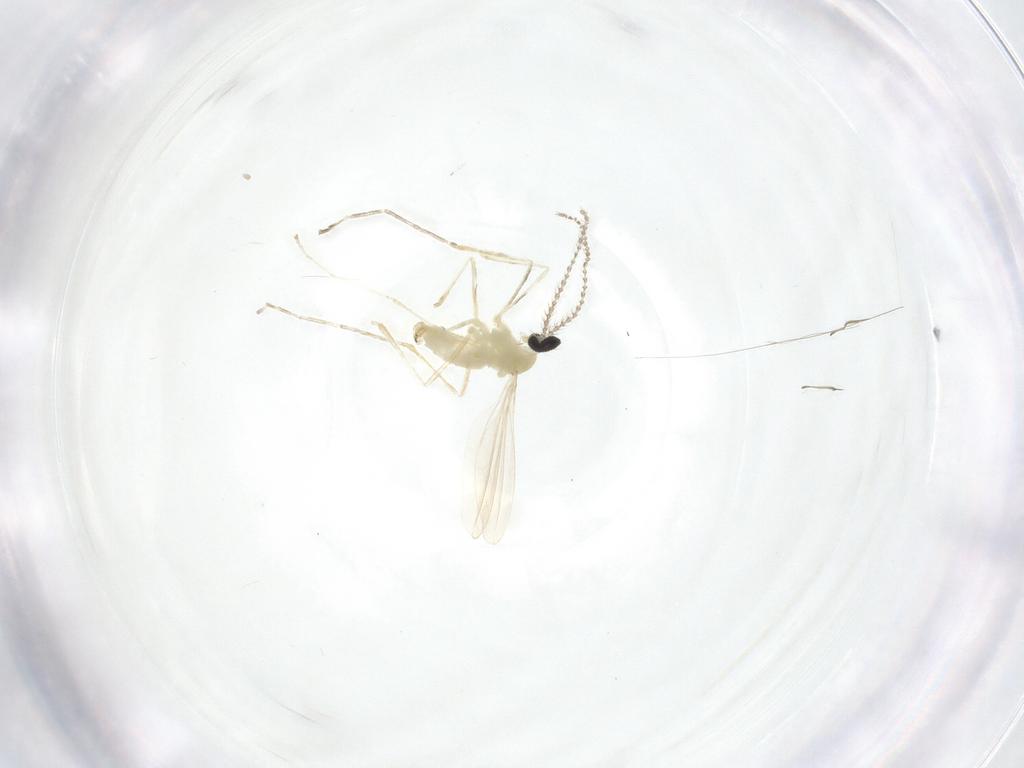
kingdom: Animalia
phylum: Arthropoda
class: Insecta
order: Diptera
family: Cecidomyiidae
